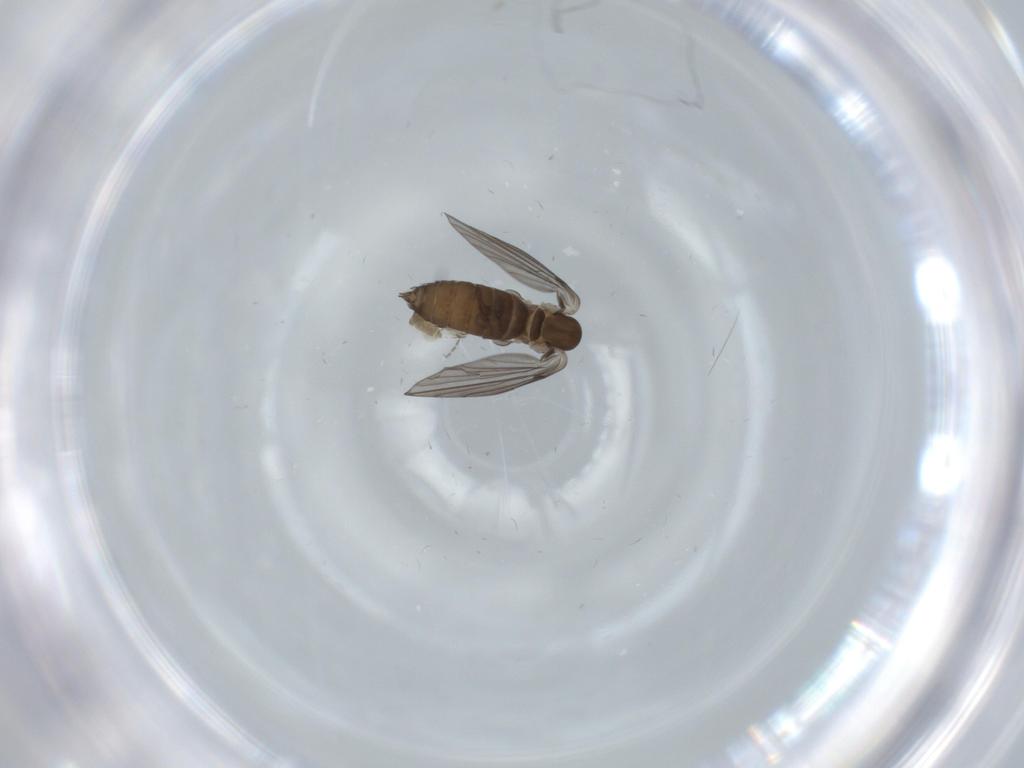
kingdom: Animalia
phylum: Arthropoda
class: Insecta
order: Diptera
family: Psychodidae
